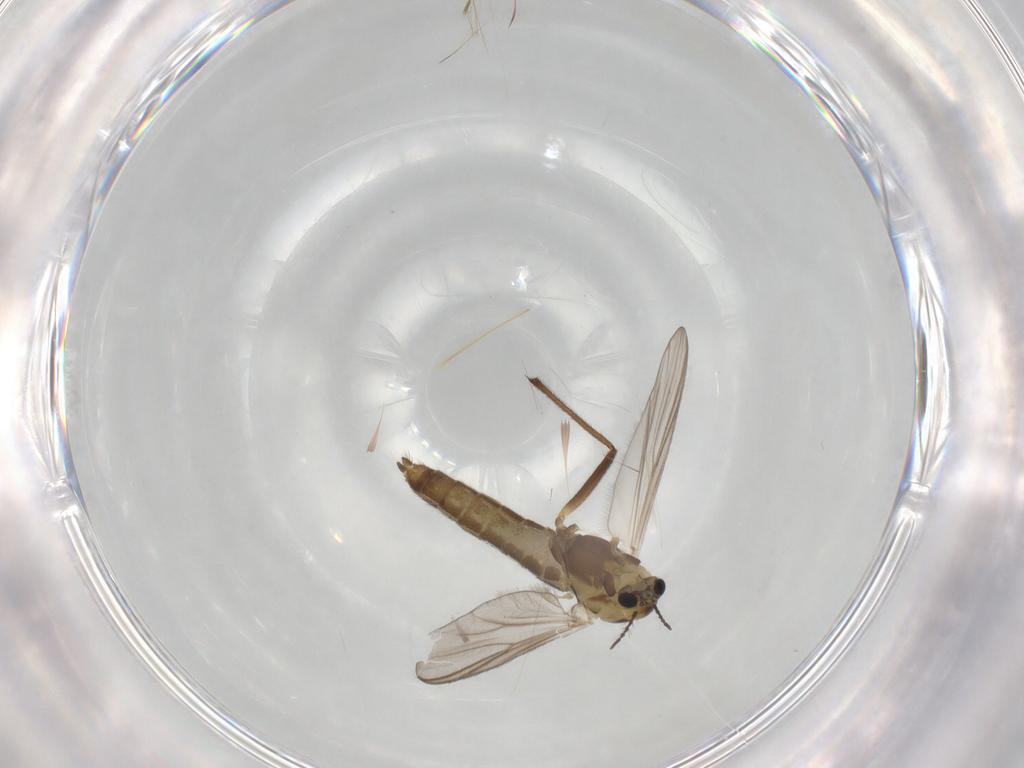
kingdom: Animalia
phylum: Arthropoda
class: Insecta
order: Diptera
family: Chironomidae
